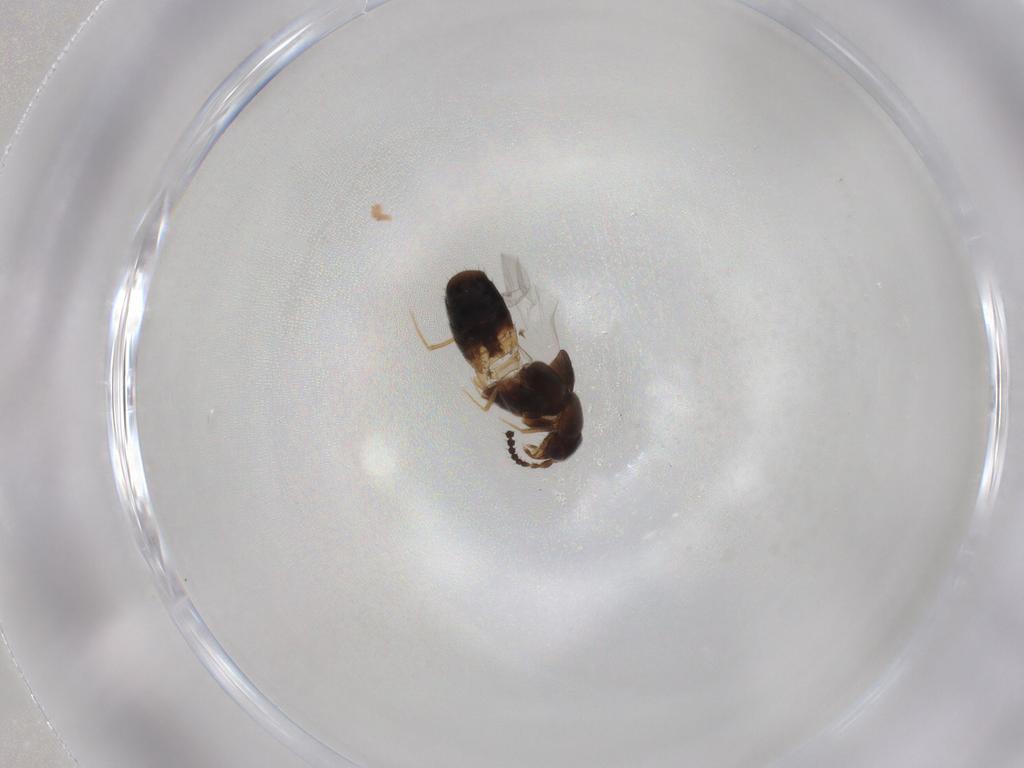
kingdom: Animalia
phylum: Arthropoda
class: Insecta
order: Coleoptera
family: Staphylinidae
